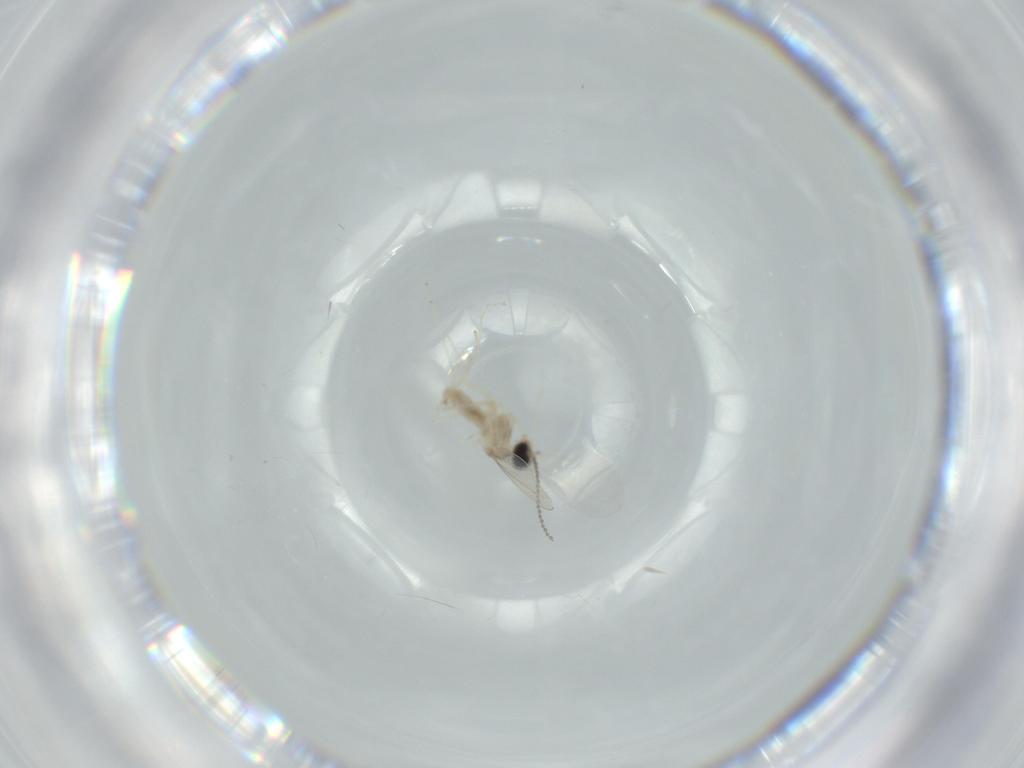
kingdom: Animalia
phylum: Arthropoda
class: Insecta
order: Diptera
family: Cecidomyiidae
